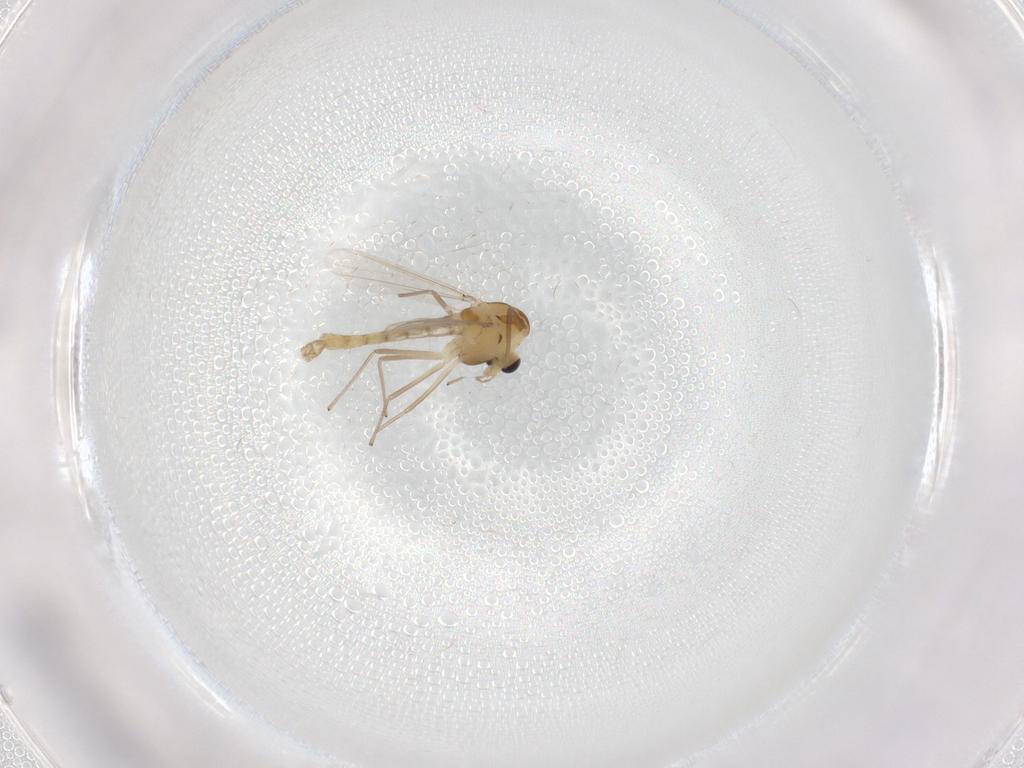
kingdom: Animalia
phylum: Arthropoda
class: Insecta
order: Diptera
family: Chironomidae
